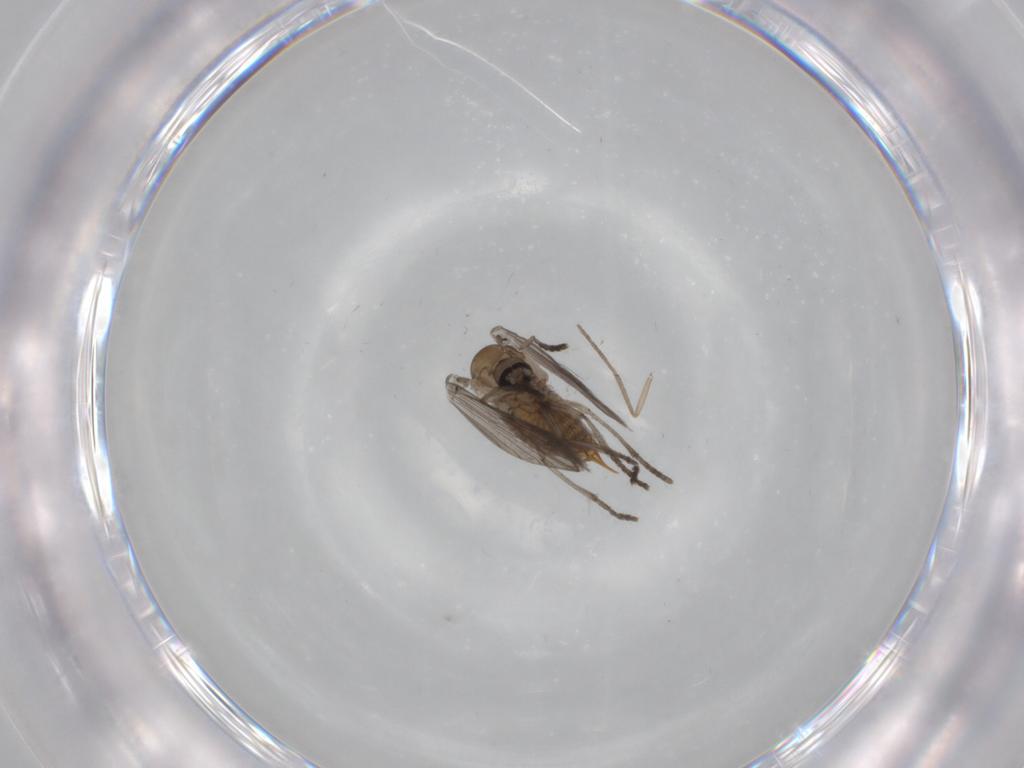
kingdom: Animalia
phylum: Arthropoda
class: Insecta
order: Diptera
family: Psychodidae
